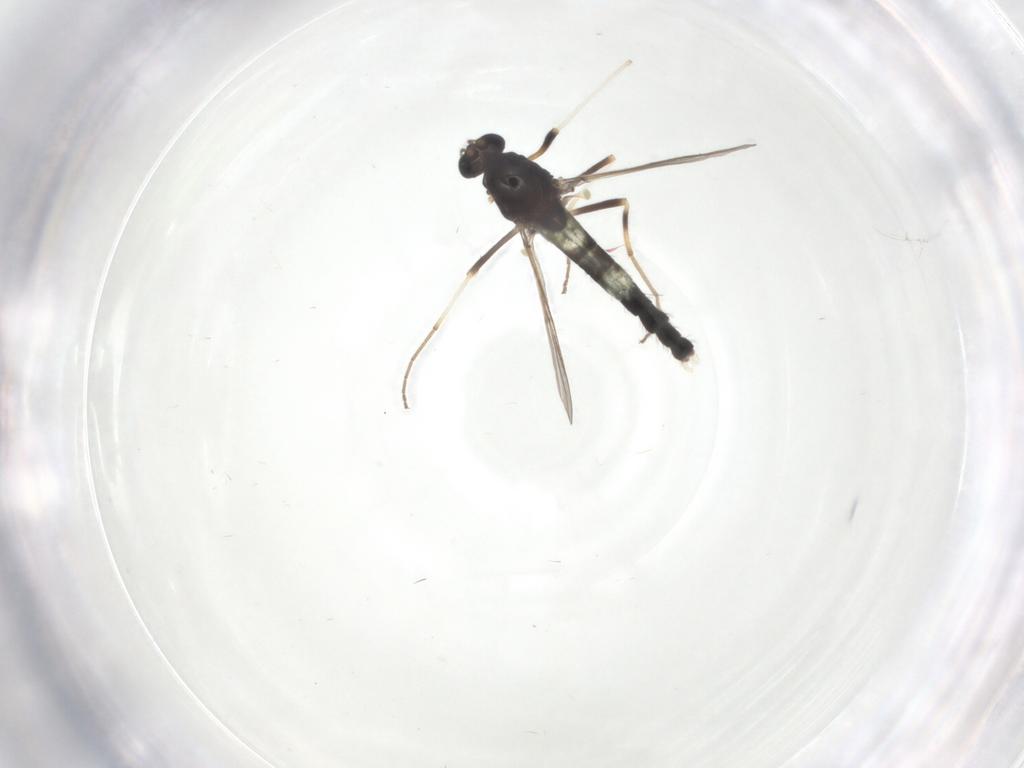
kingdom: Animalia
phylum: Arthropoda
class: Insecta
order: Diptera
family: Chironomidae
